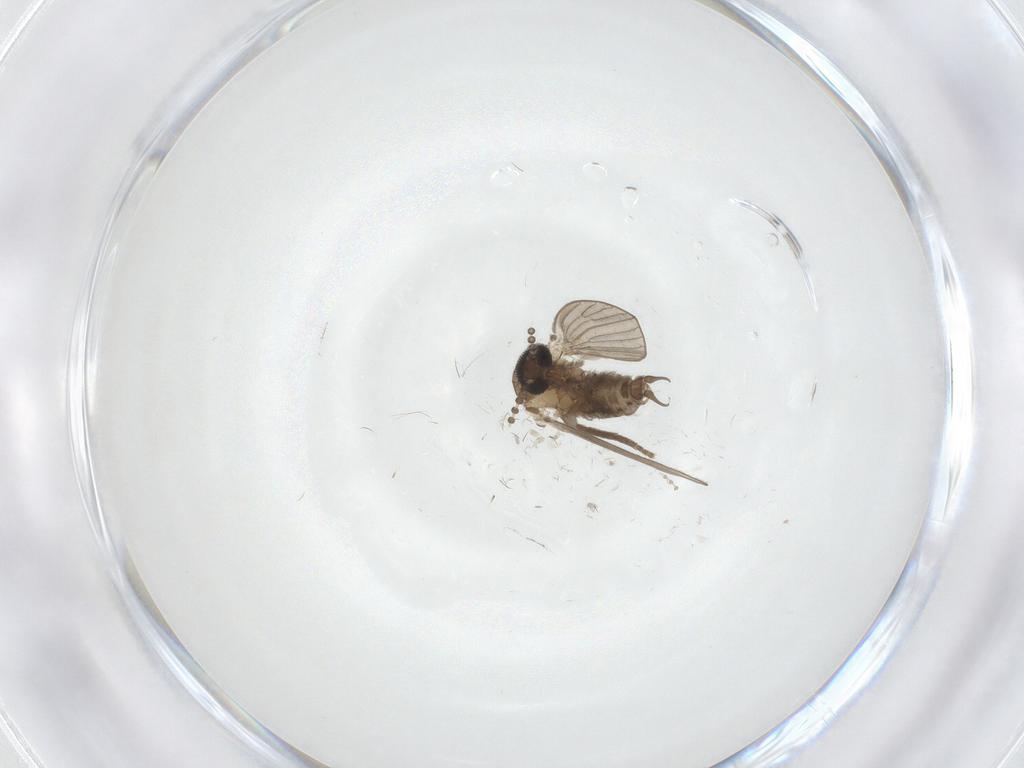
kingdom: Animalia
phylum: Arthropoda
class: Insecta
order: Diptera
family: Psychodidae
